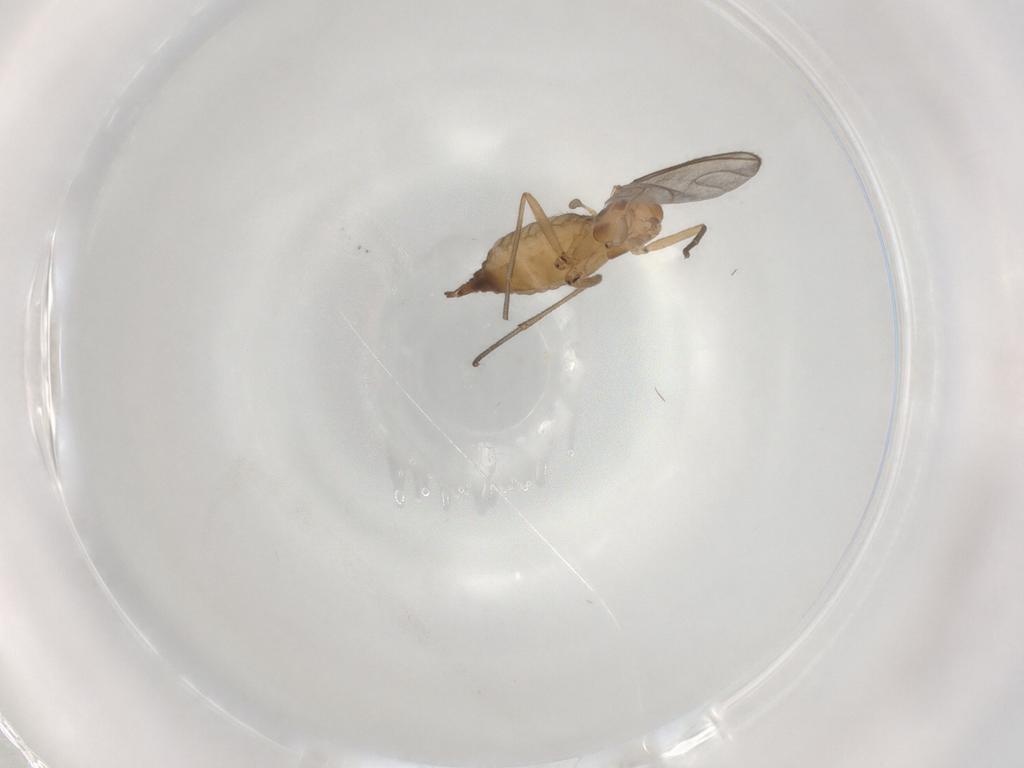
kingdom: Animalia
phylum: Arthropoda
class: Insecta
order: Diptera
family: Sciaridae
